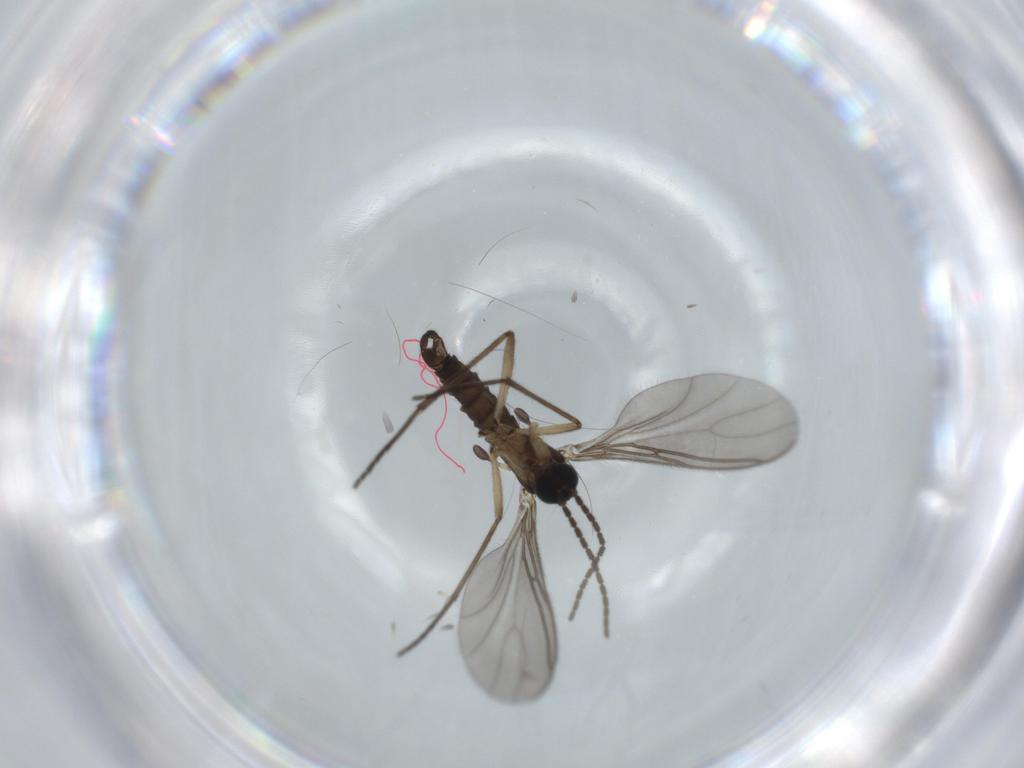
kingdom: Animalia
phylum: Arthropoda
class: Insecta
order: Diptera
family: Sciaridae
